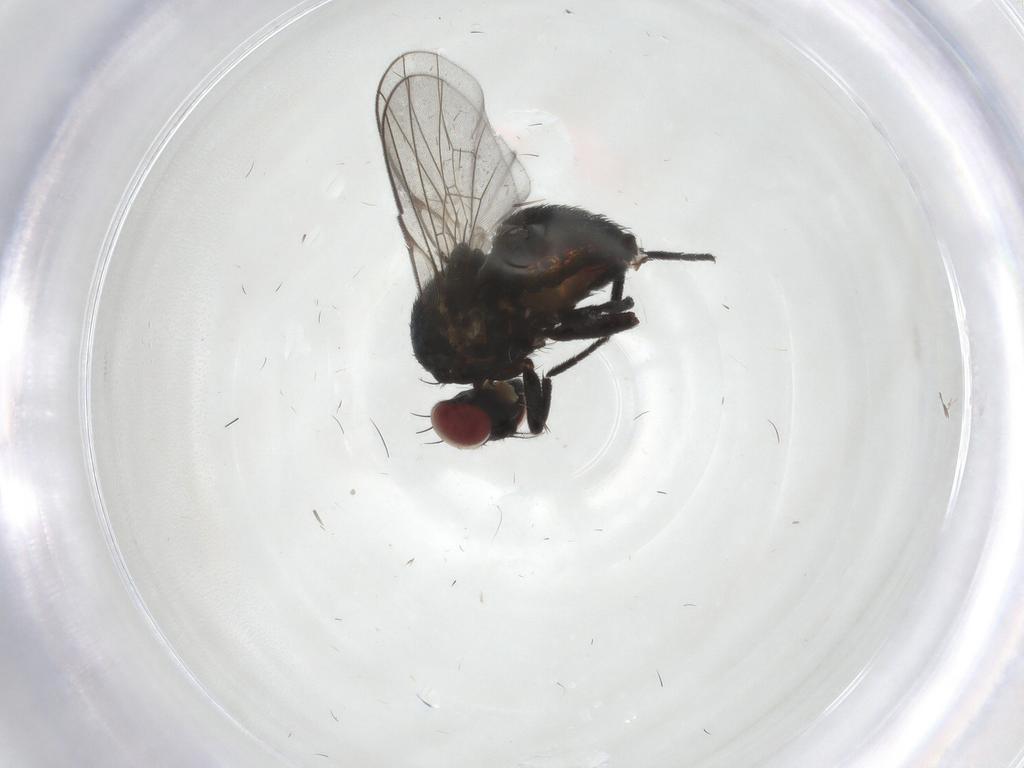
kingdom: Animalia
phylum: Arthropoda
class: Insecta
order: Diptera
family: Agromyzidae
